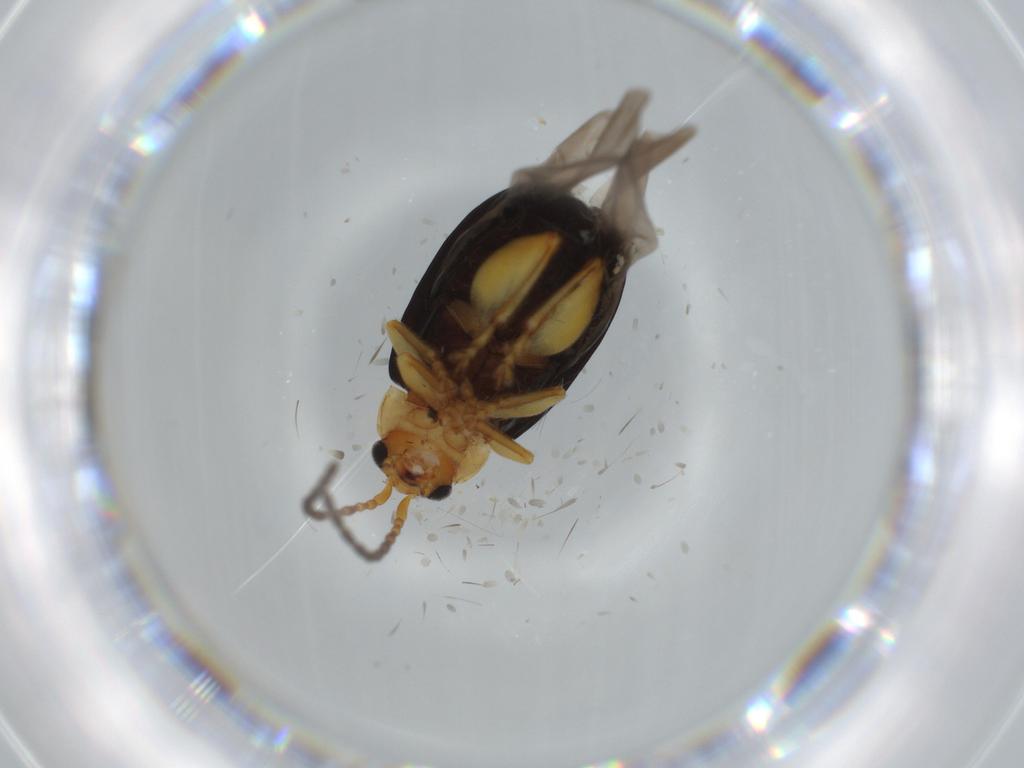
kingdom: Animalia
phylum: Arthropoda
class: Insecta
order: Coleoptera
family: Chrysomelidae
